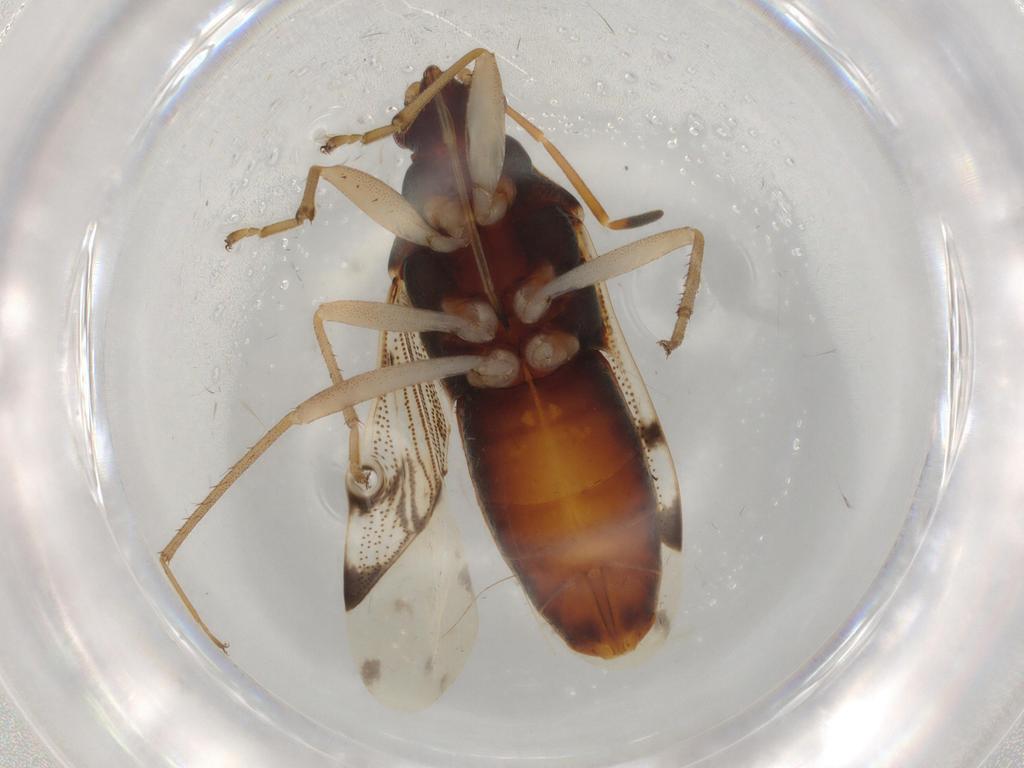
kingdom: Animalia
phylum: Arthropoda
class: Insecta
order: Hemiptera
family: Rhyparochromidae
